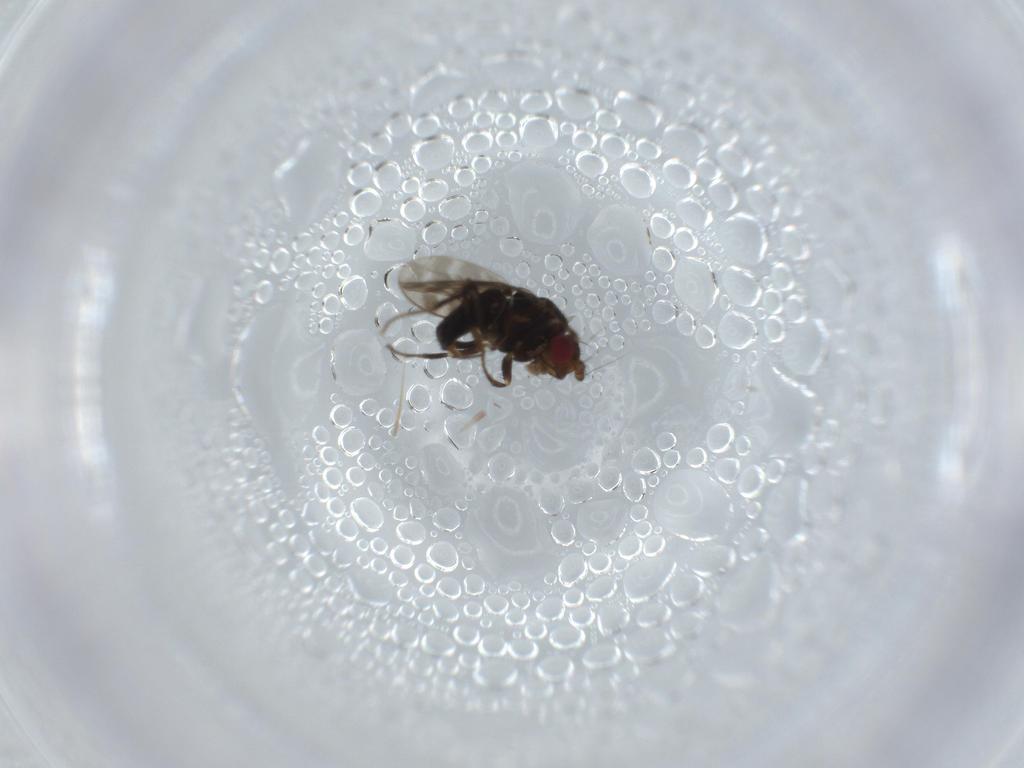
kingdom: Animalia
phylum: Arthropoda
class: Insecta
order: Diptera
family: Sphaeroceridae
